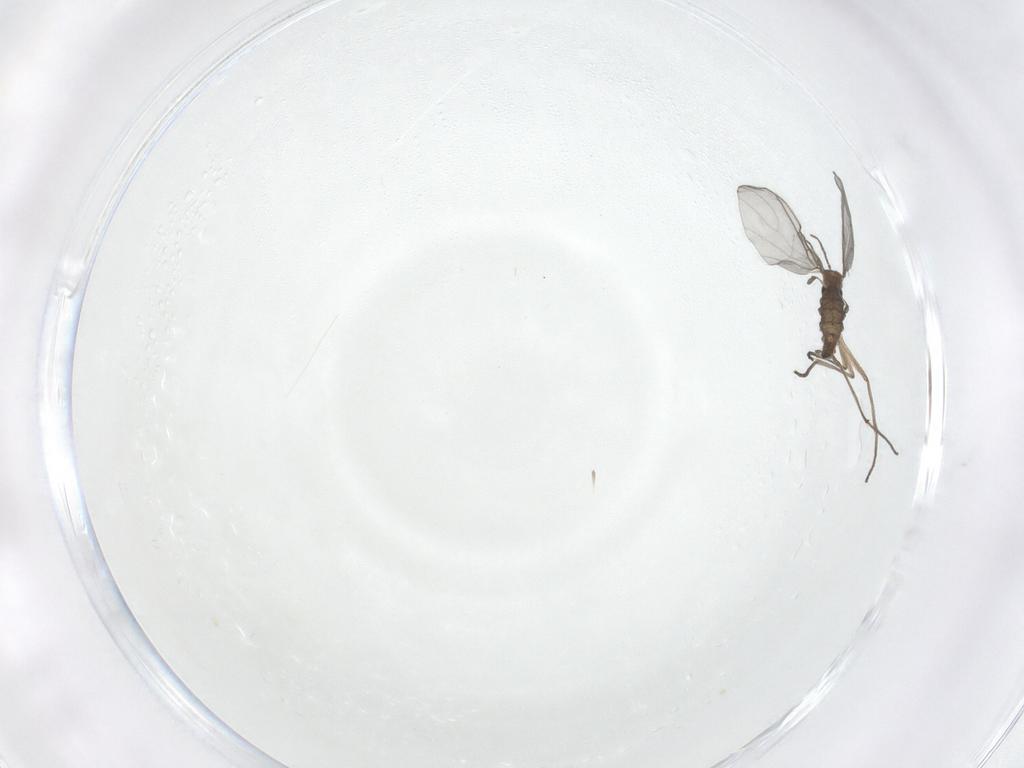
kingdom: Animalia
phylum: Arthropoda
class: Insecta
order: Diptera
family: Sciaridae
